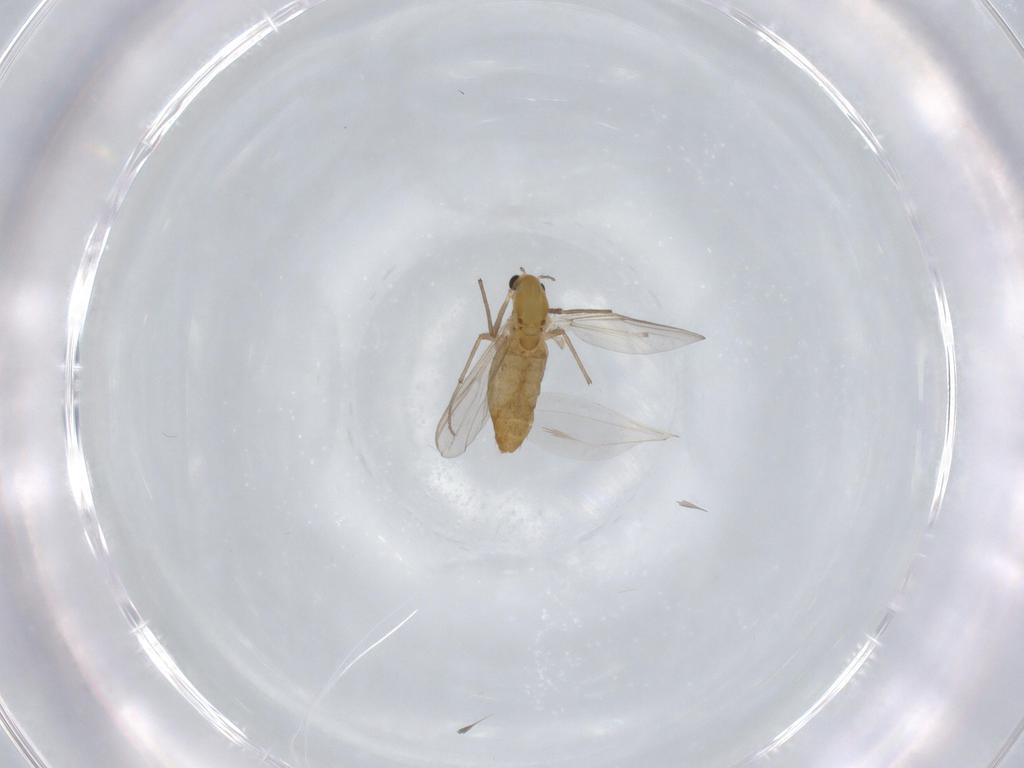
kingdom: Animalia
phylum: Arthropoda
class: Insecta
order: Diptera
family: Chironomidae
